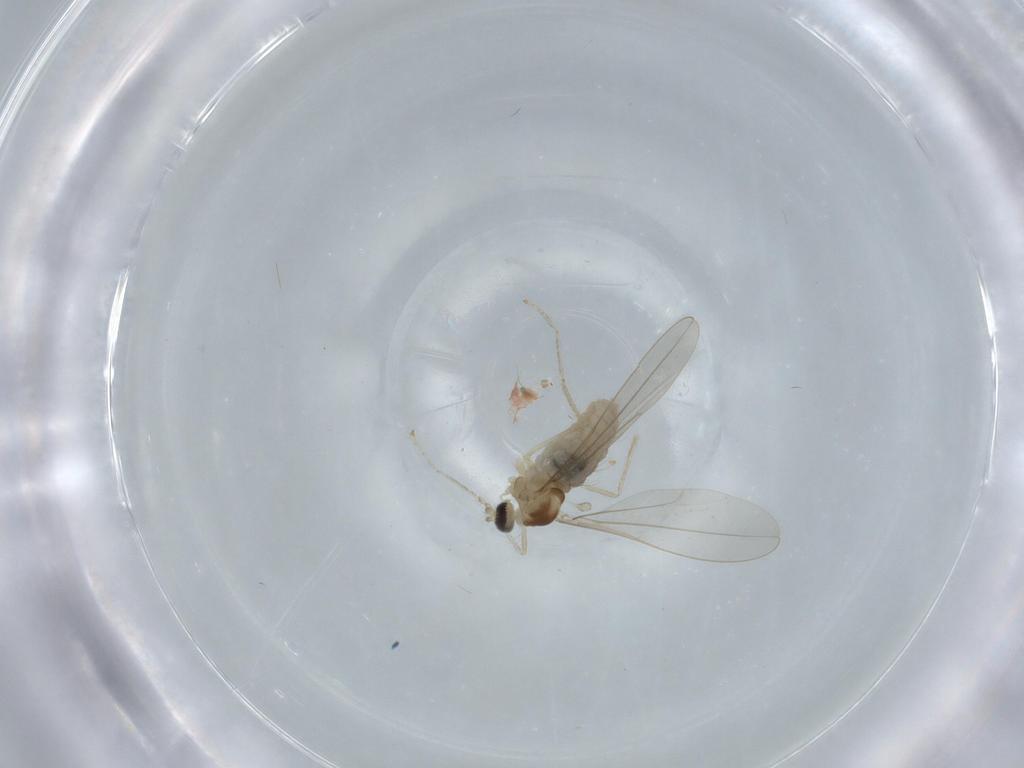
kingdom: Animalia
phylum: Arthropoda
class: Insecta
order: Diptera
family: Cecidomyiidae
